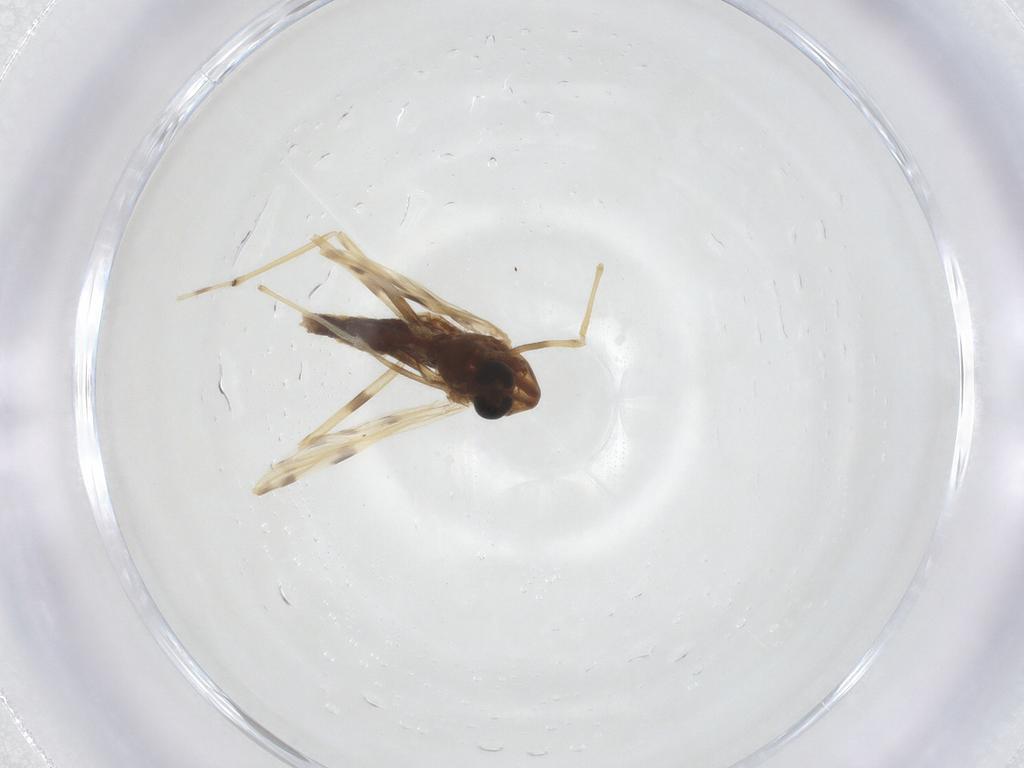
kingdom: Animalia
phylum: Arthropoda
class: Insecta
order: Diptera
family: Chironomidae
